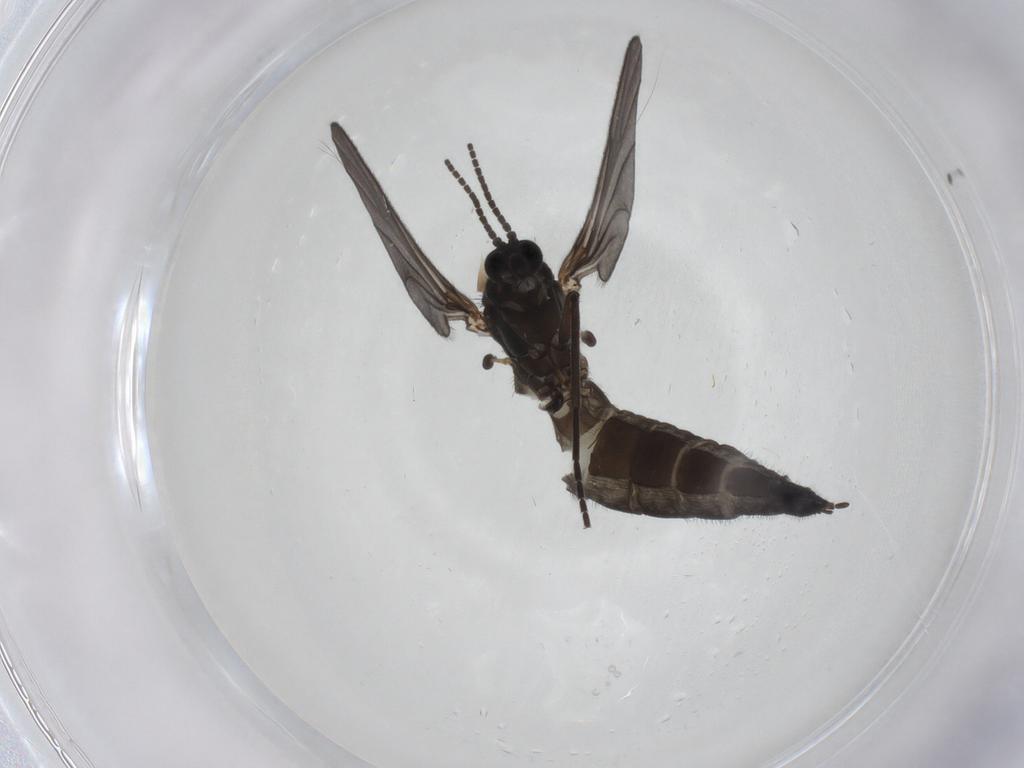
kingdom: Animalia
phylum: Arthropoda
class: Insecta
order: Diptera
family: Sciaridae
